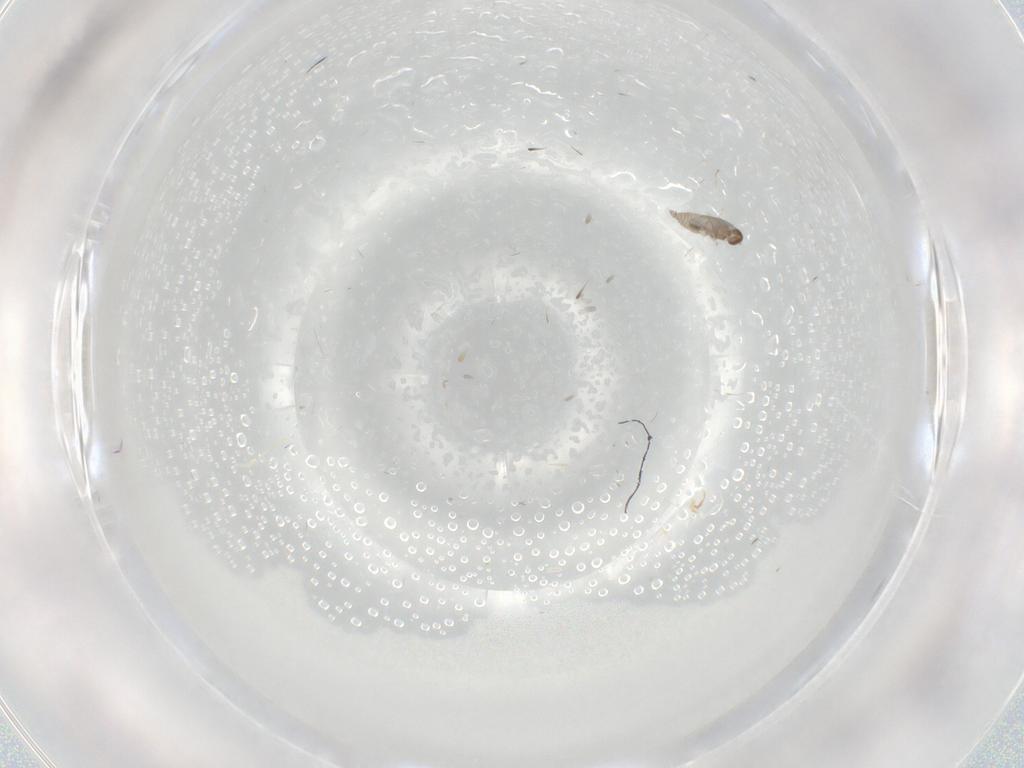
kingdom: Animalia
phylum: Arthropoda
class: Insecta
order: Diptera
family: Cecidomyiidae
